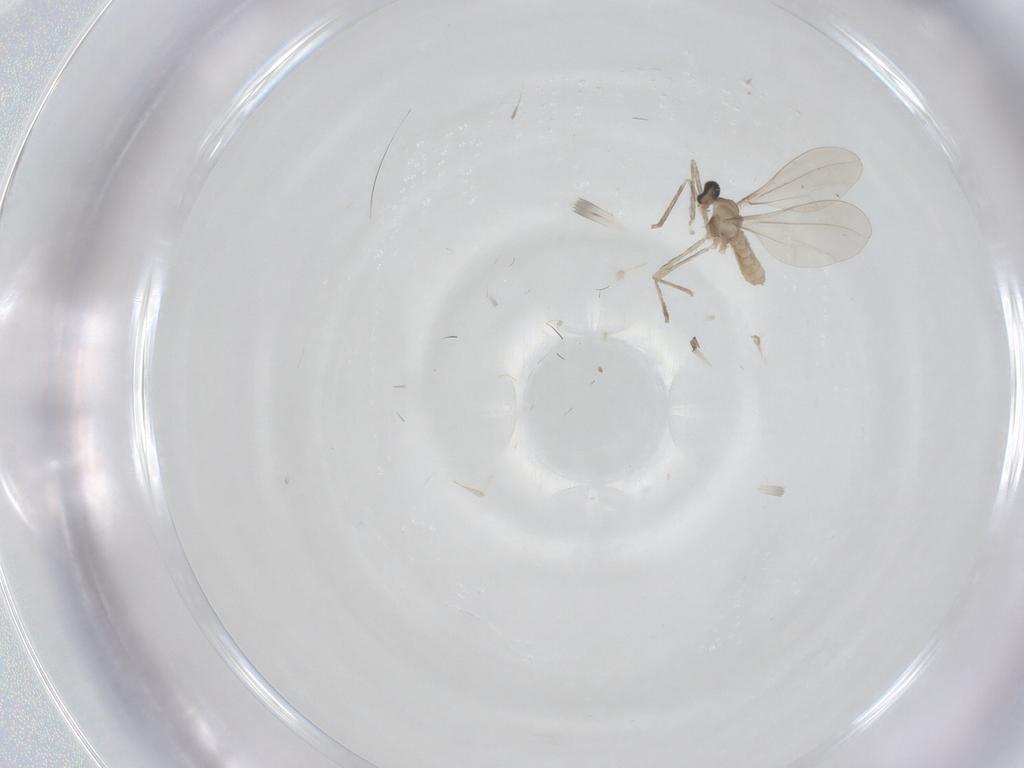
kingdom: Animalia
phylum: Arthropoda
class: Insecta
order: Diptera
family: Cecidomyiidae
